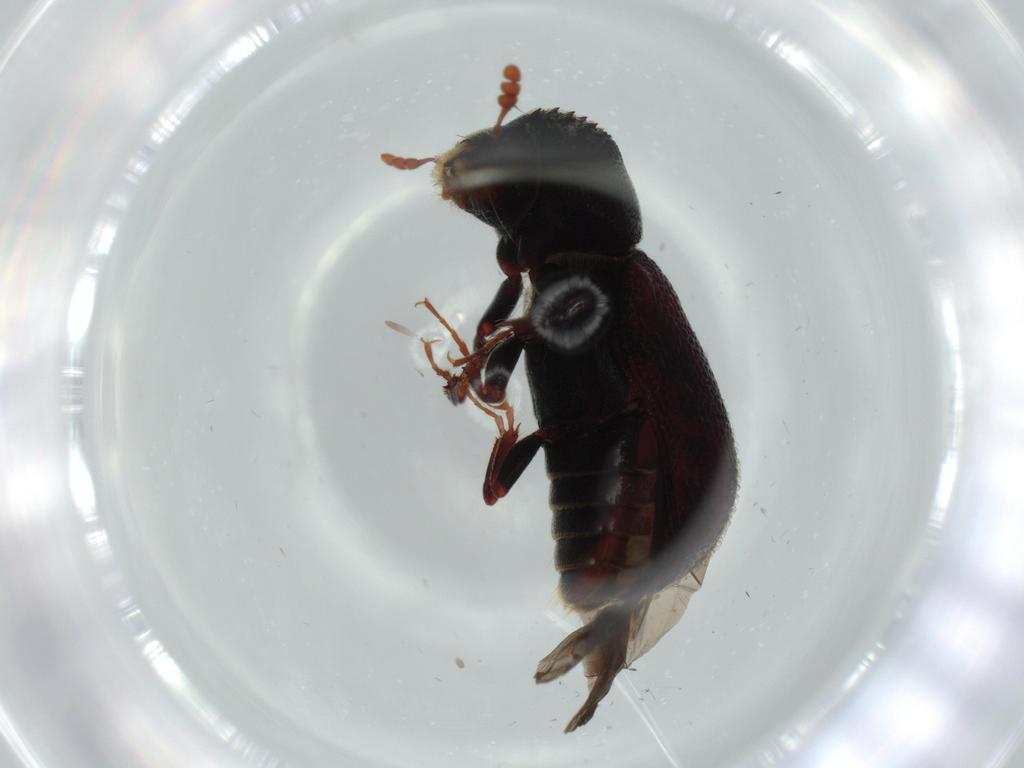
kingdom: Animalia
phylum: Arthropoda
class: Insecta
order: Coleoptera
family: Bostrichidae
